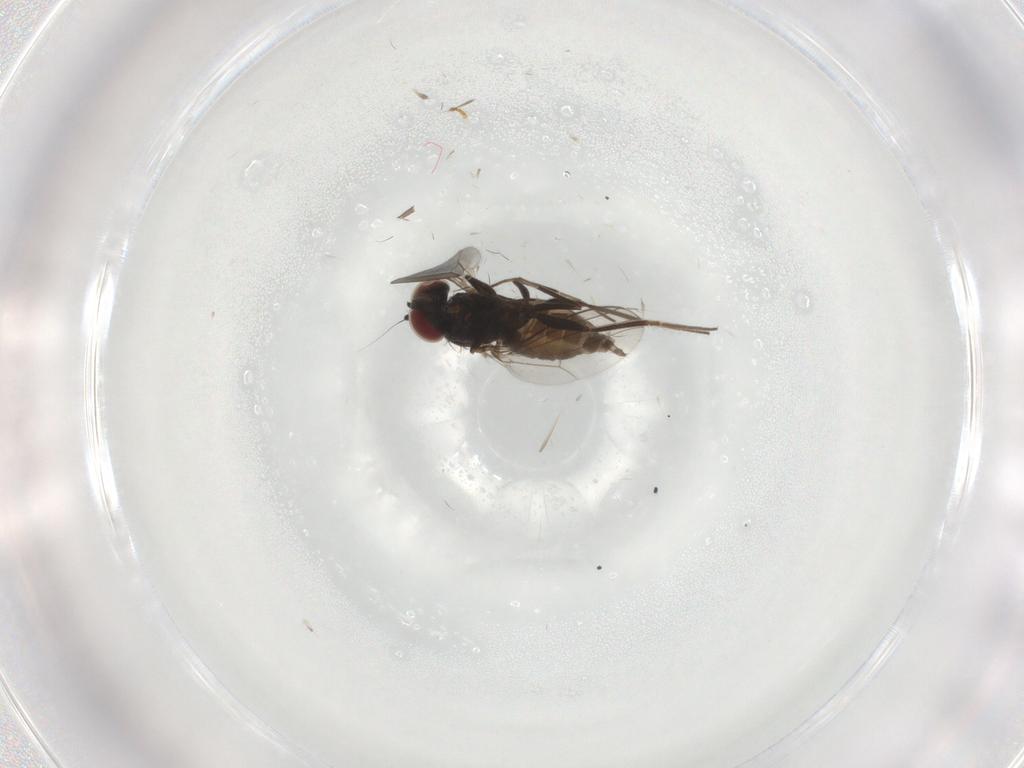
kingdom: Animalia
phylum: Arthropoda
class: Insecta
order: Diptera
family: Dolichopodidae
